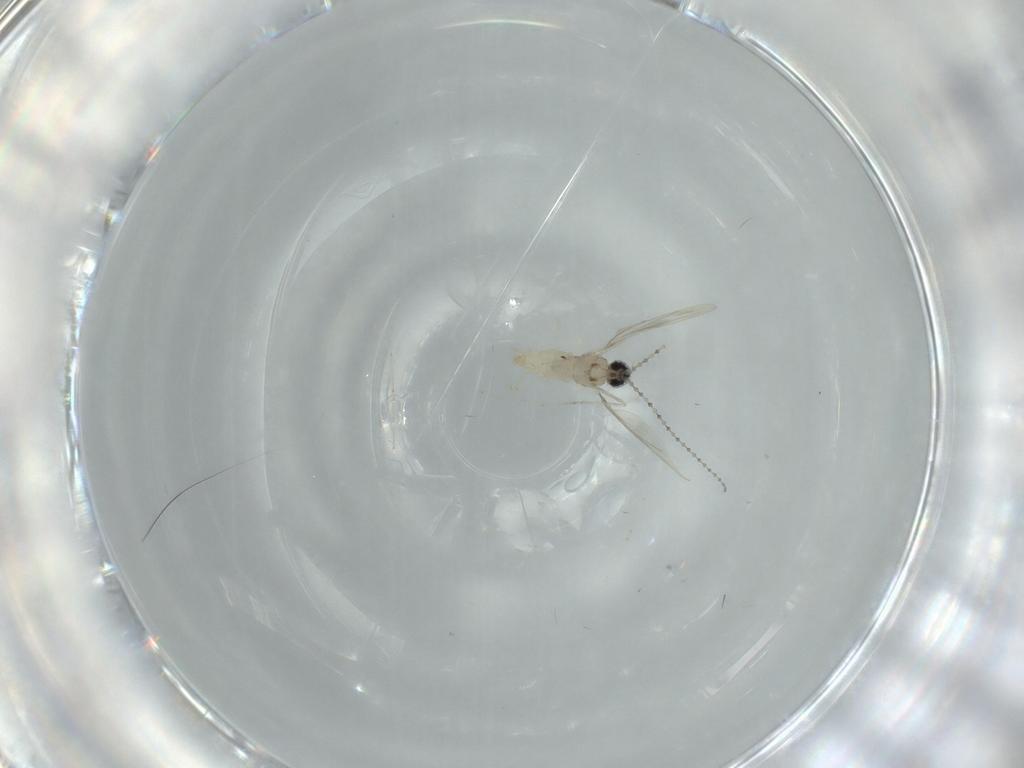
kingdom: Animalia
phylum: Arthropoda
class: Insecta
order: Diptera
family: Cecidomyiidae
